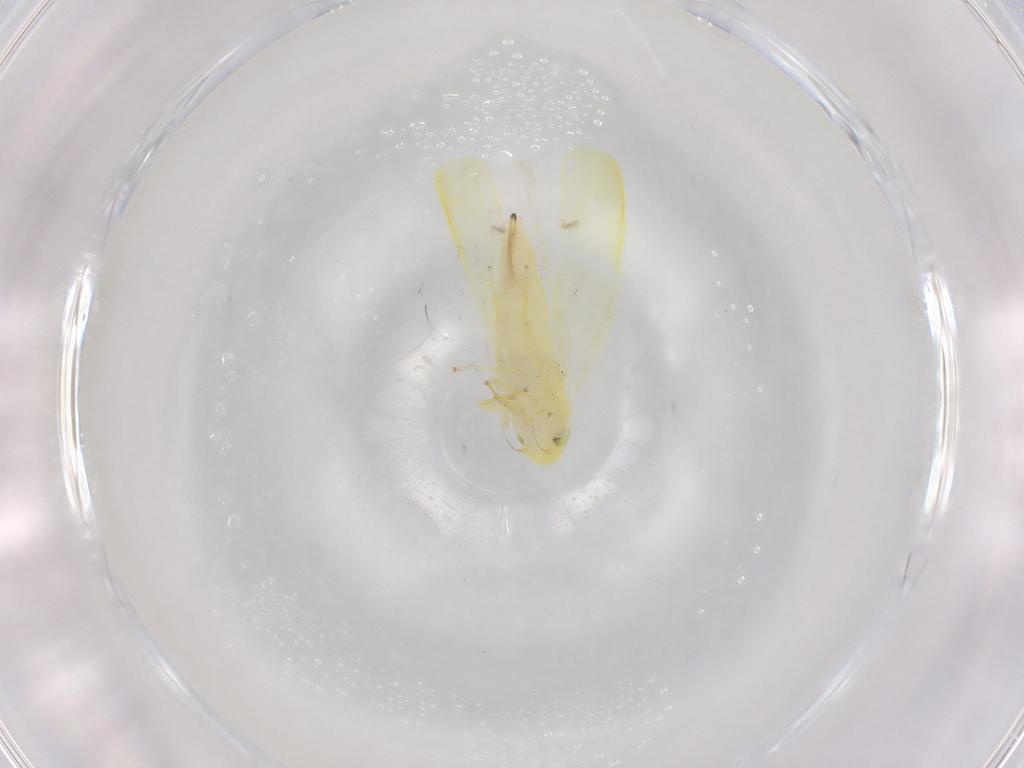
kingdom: Animalia
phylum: Arthropoda
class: Insecta
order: Hemiptera
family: Cicadellidae
